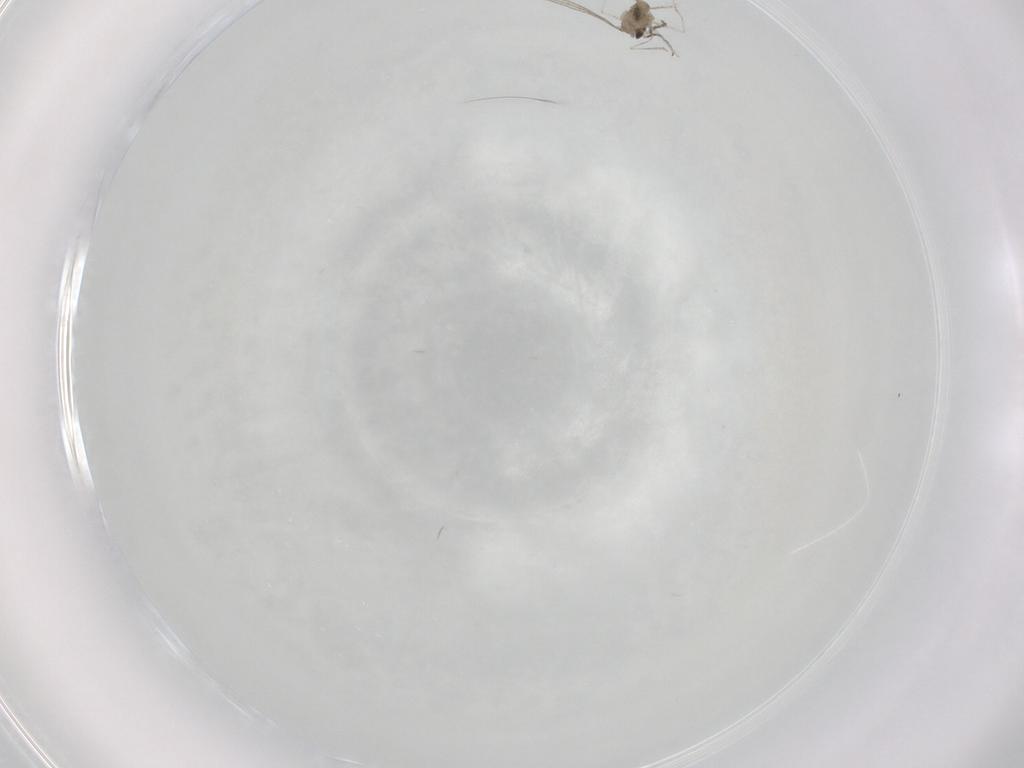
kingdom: Animalia
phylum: Arthropoda
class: Insecta
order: Diptera
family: Cecidomyiidae
